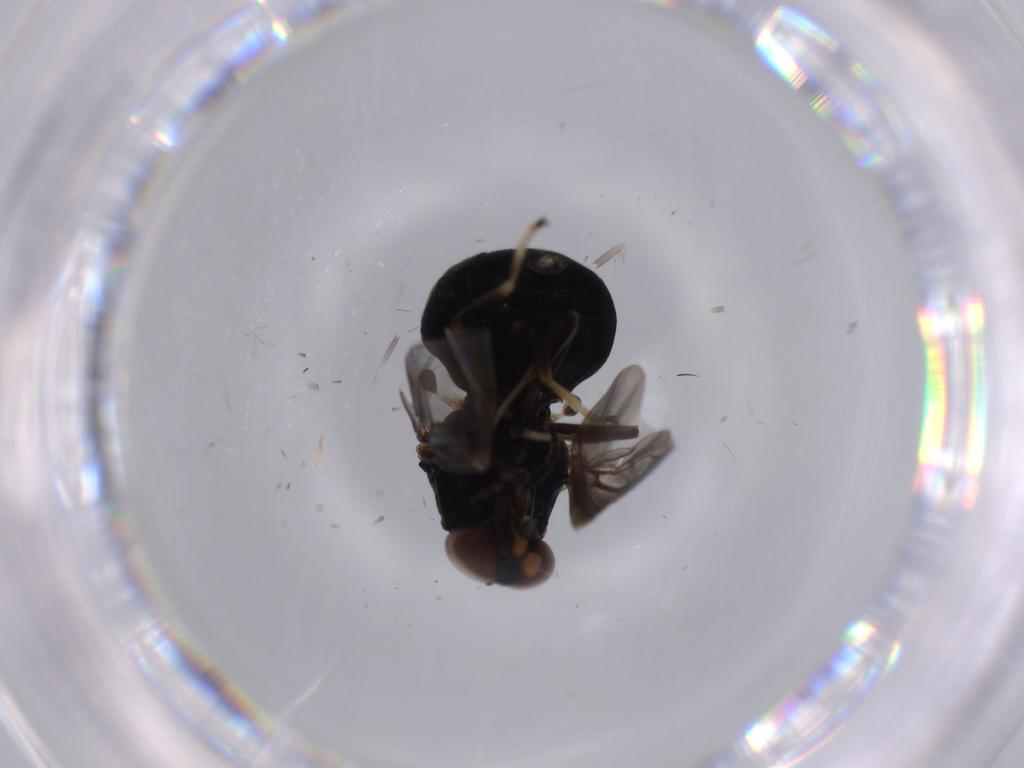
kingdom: Animalia
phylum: Arthropoda
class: Insecta
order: Diptera
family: Stratiomyidae
